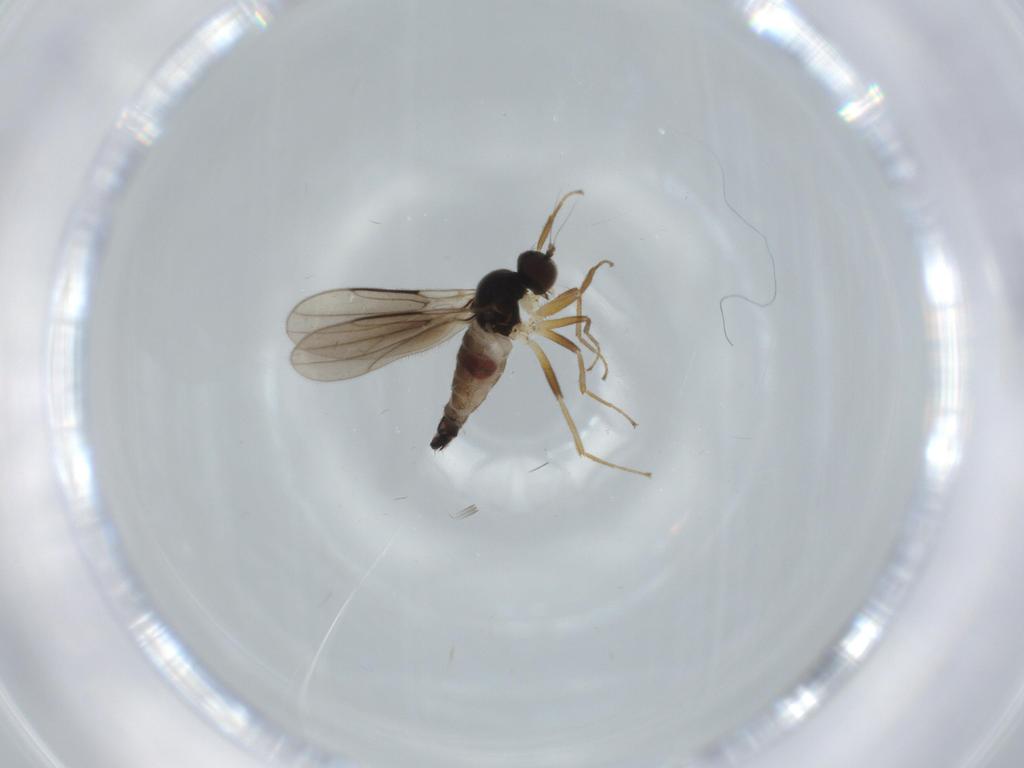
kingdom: Animalia
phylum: Arthropoda
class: Insecta
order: Diptera
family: Hybotidae
